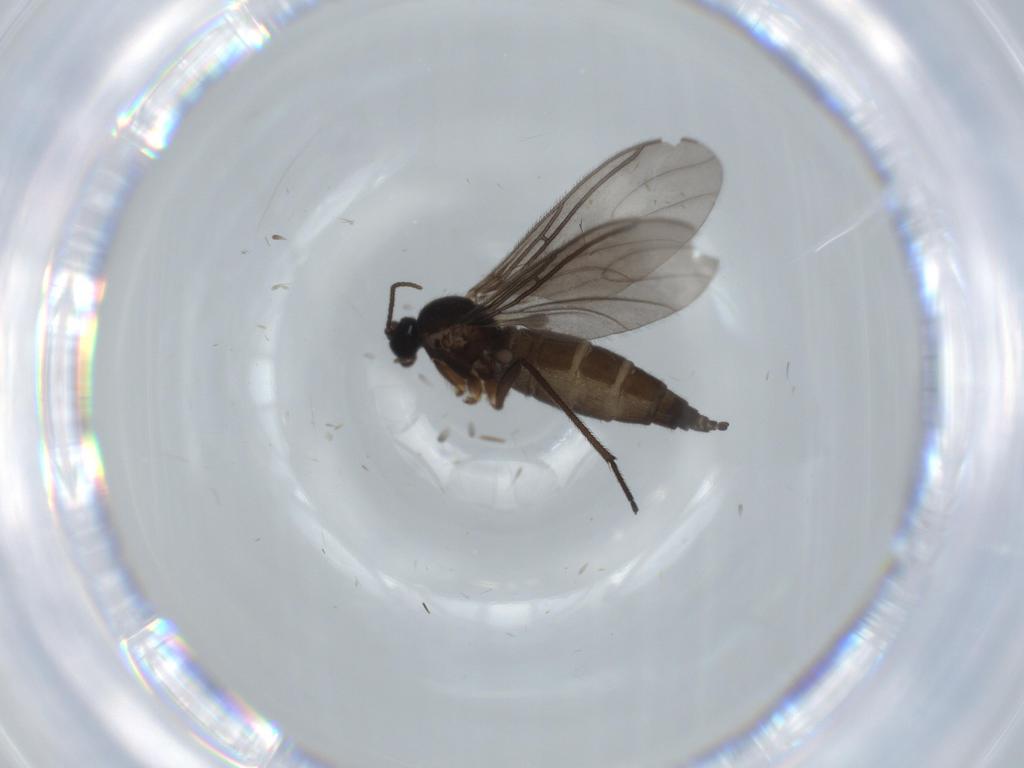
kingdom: Animalia
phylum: Arthropoda
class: Insecta
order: Diptera
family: Sciaridae
